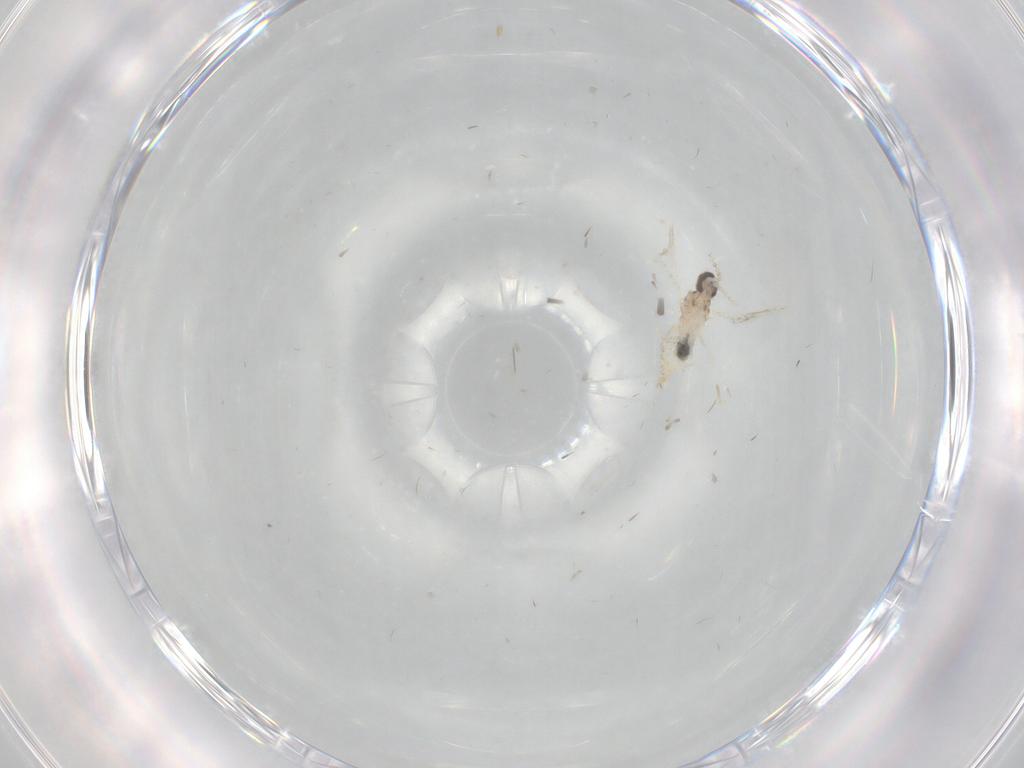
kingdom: Animalia
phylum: Arthropoda
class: Insecta
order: Diptera
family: Cecidomyiidae
